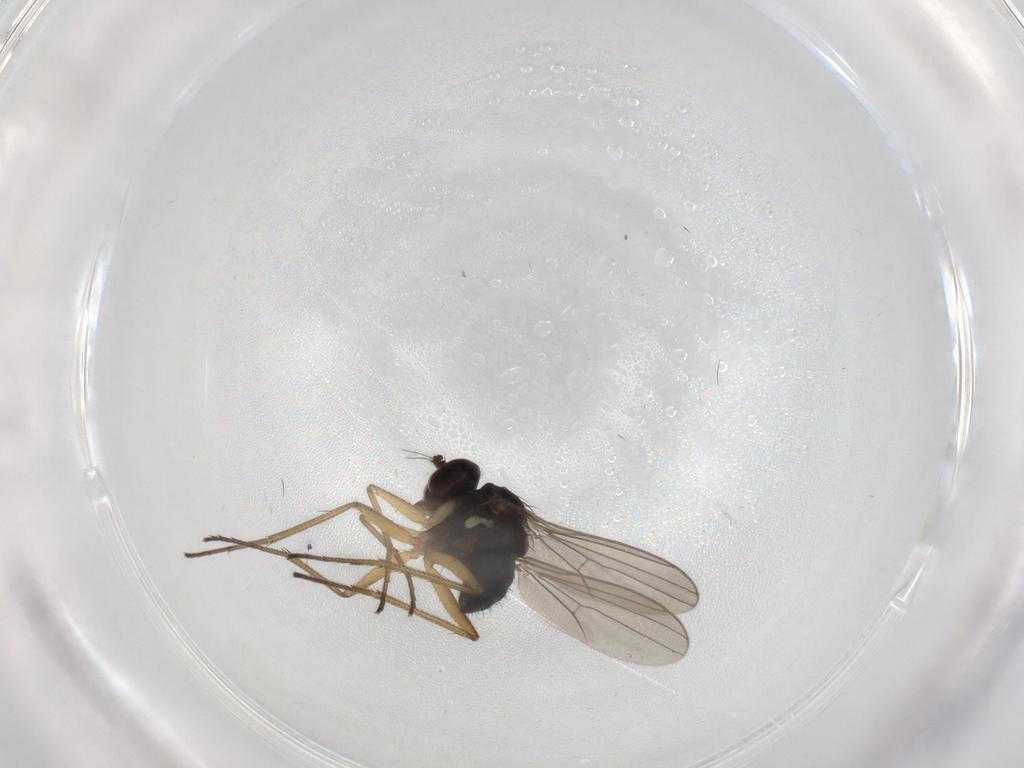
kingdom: Animalia
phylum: Arthropoda
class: Insecta
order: Diptera
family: Dolichopodidae
